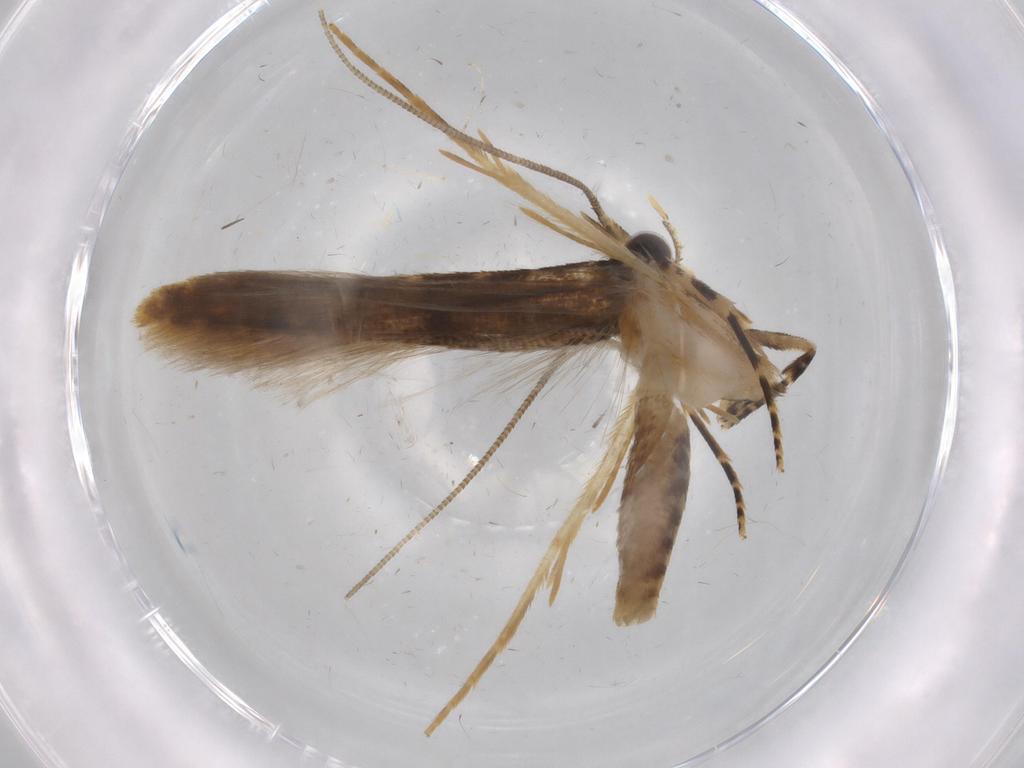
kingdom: Animalia
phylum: Arthropoda
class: Insecta
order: Lepidoptera
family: Tineidae
